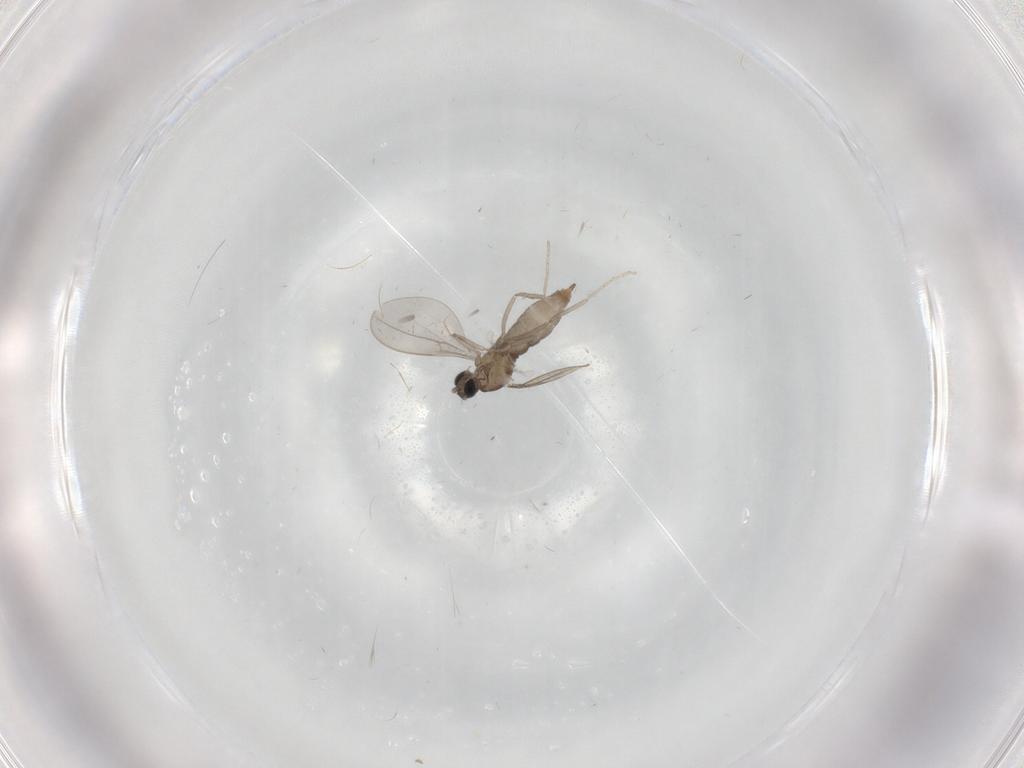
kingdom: Animalia
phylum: Arthropoda
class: Insecta
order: Diptera
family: Cecidomyiidae
